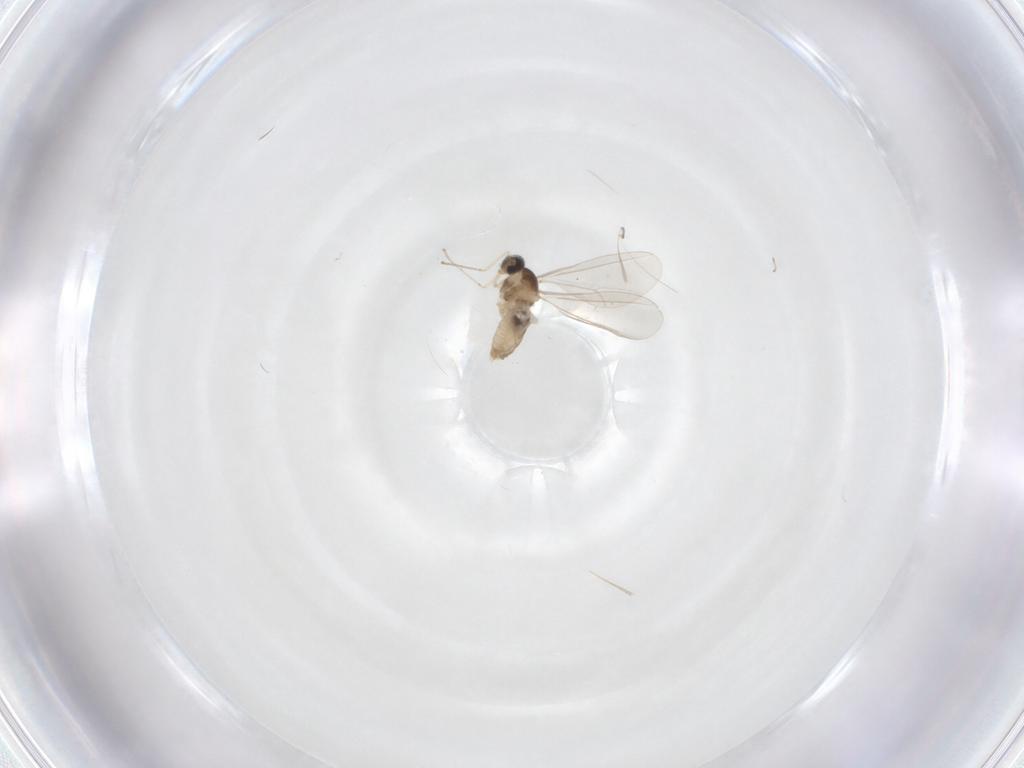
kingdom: Animalia
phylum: Arthropoda
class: Insecta
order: Diptera
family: Cecidomyiidae
